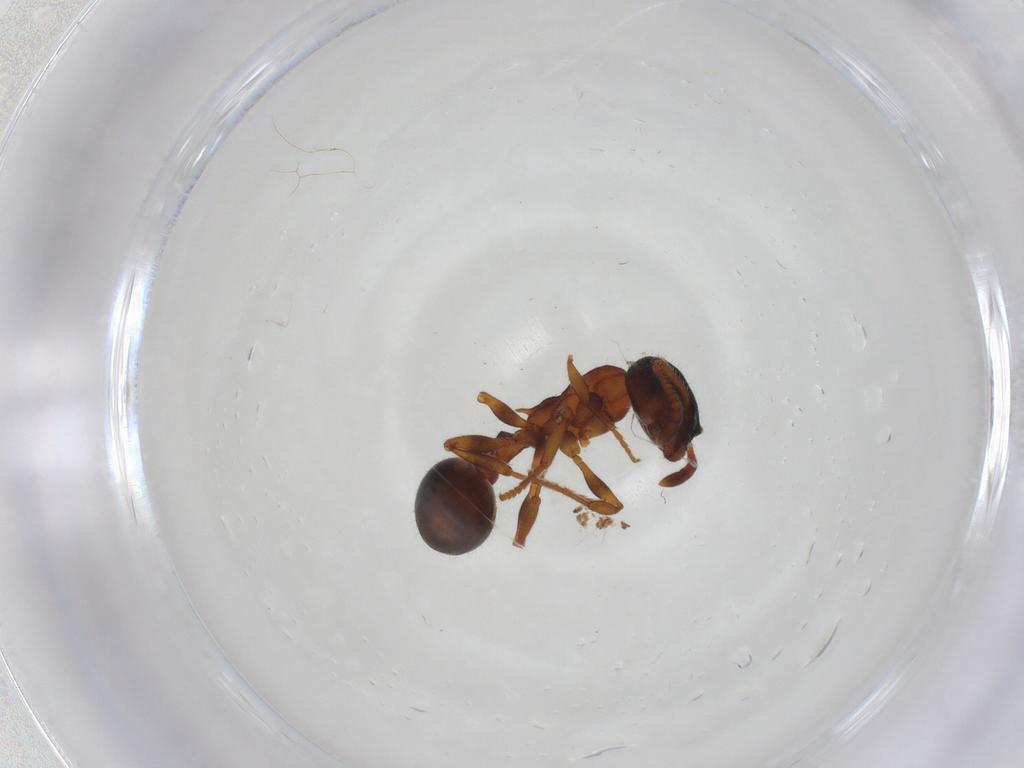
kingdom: Animalia
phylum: Arthropoda
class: Insecta
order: Hymenoptera
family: Formicidae
